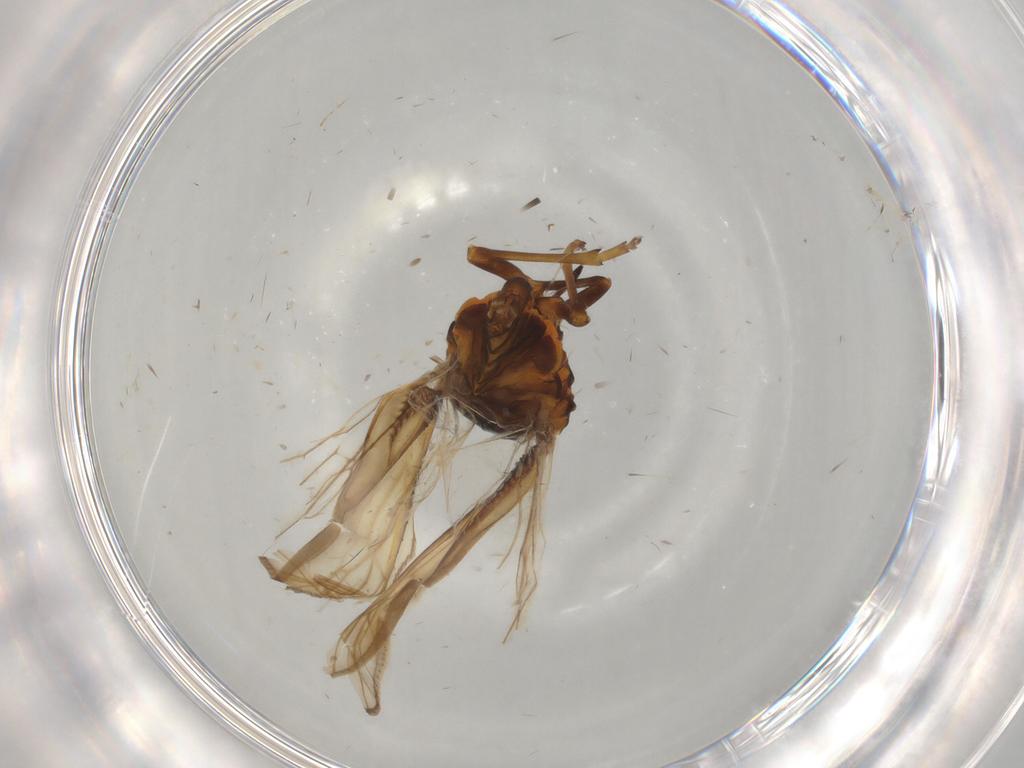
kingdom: Animalia
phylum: Arthropoda
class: Insecta
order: Hemiptera
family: Meenoplidae
